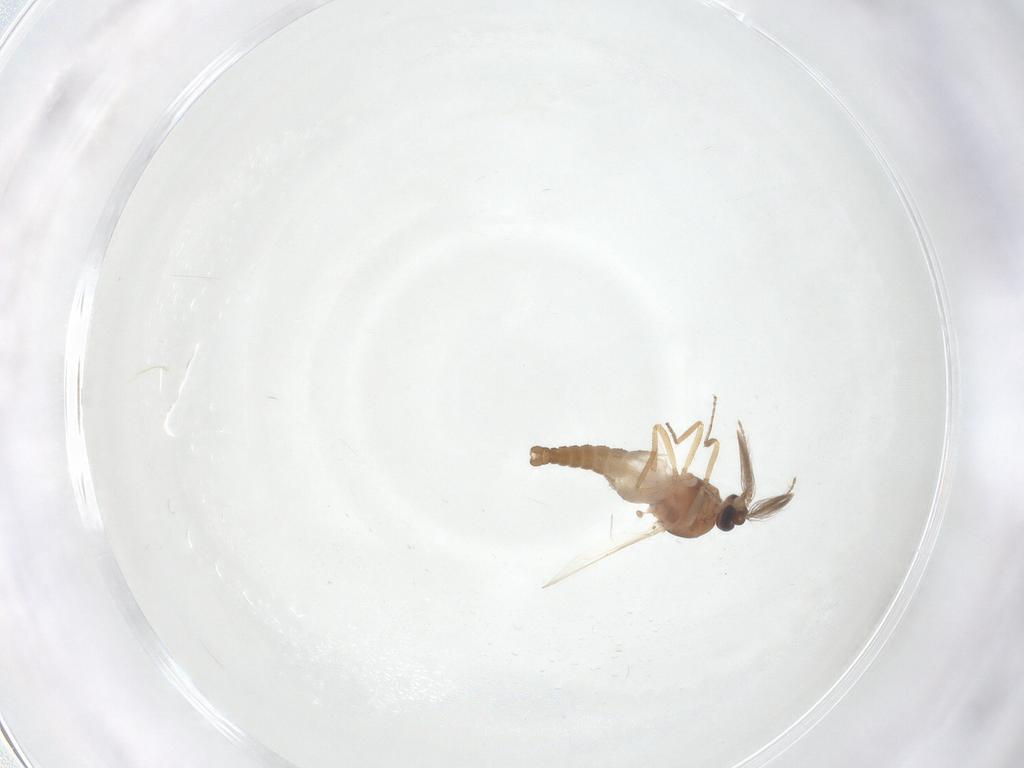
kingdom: Animalia
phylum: Arthropoda
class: Insecta
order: Diptera
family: Ceratopogonidae
